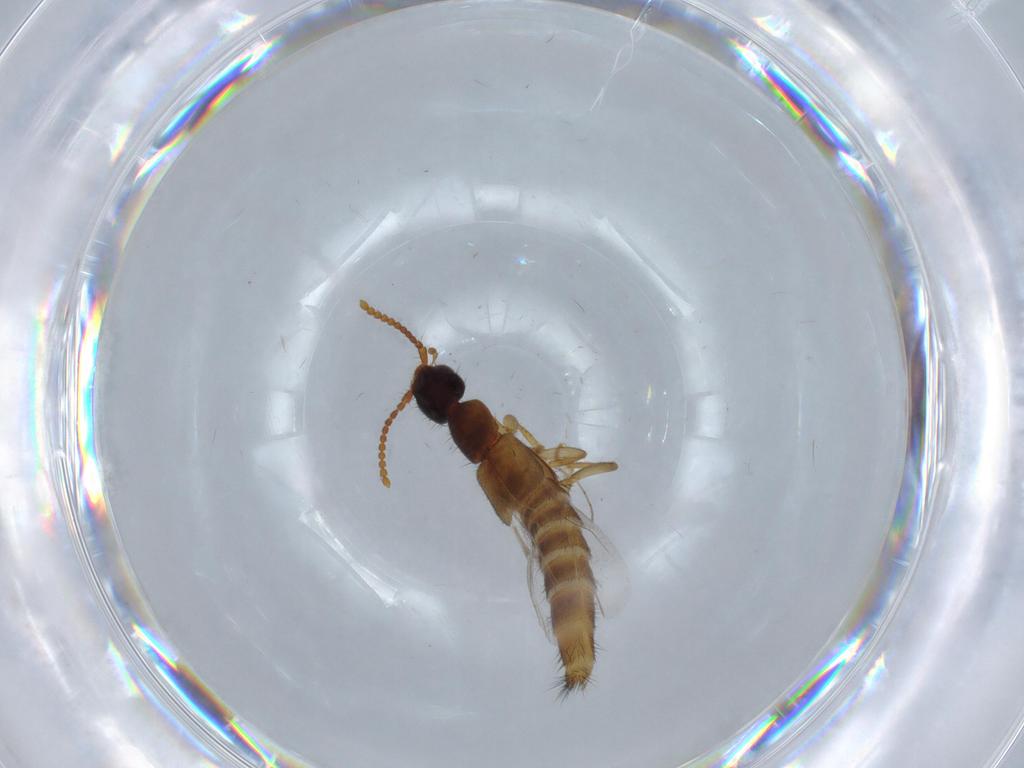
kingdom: Animalia
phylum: Arthropoda
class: Insecta
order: Coleoptera
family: Staphylinidae
